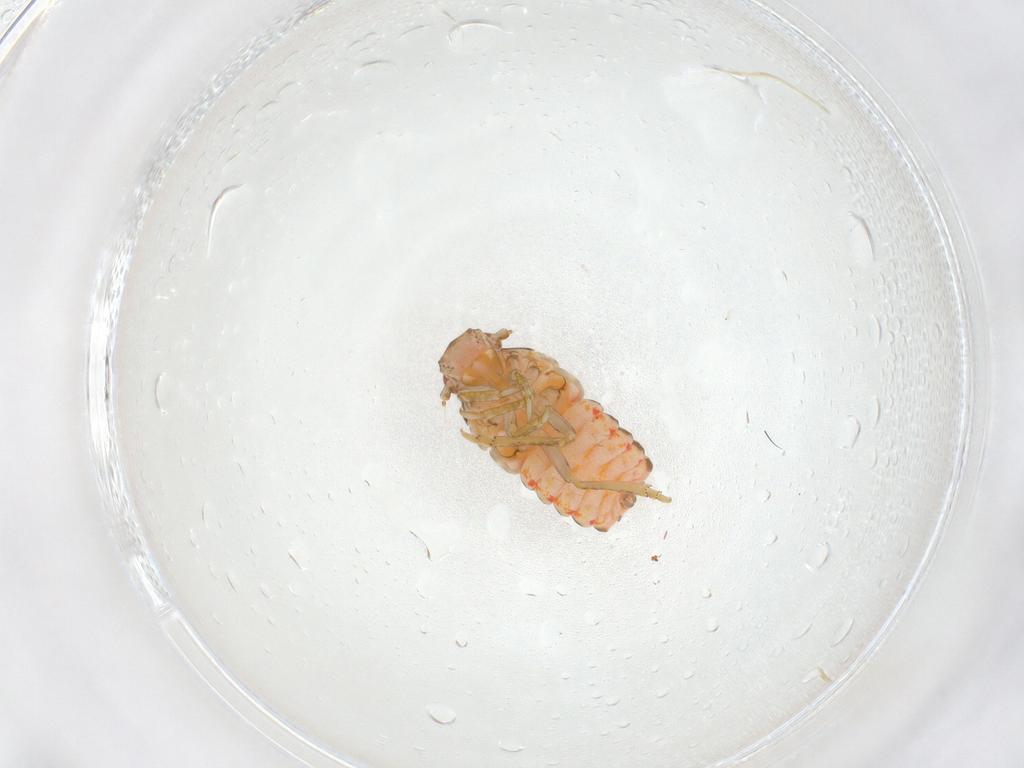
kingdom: Animalia
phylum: Arthropoda
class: Insecta
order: Hemiptera
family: Flatidae
